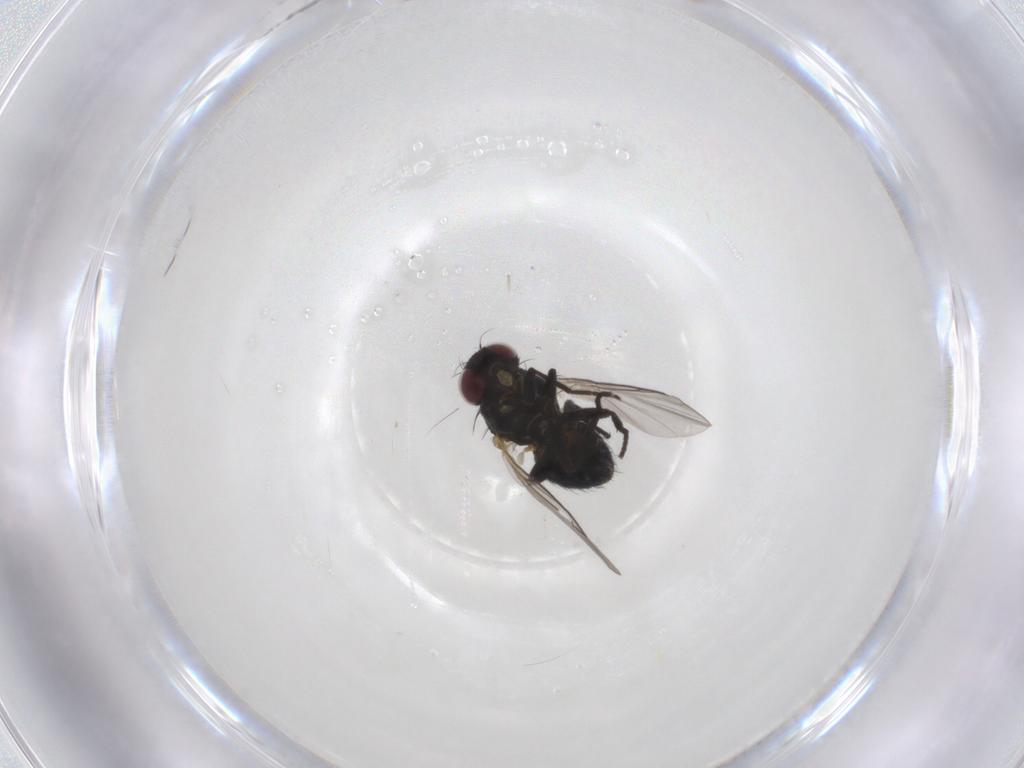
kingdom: Animalia
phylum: Arthropoda
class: Insecta
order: Diptera
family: Chironomidae
